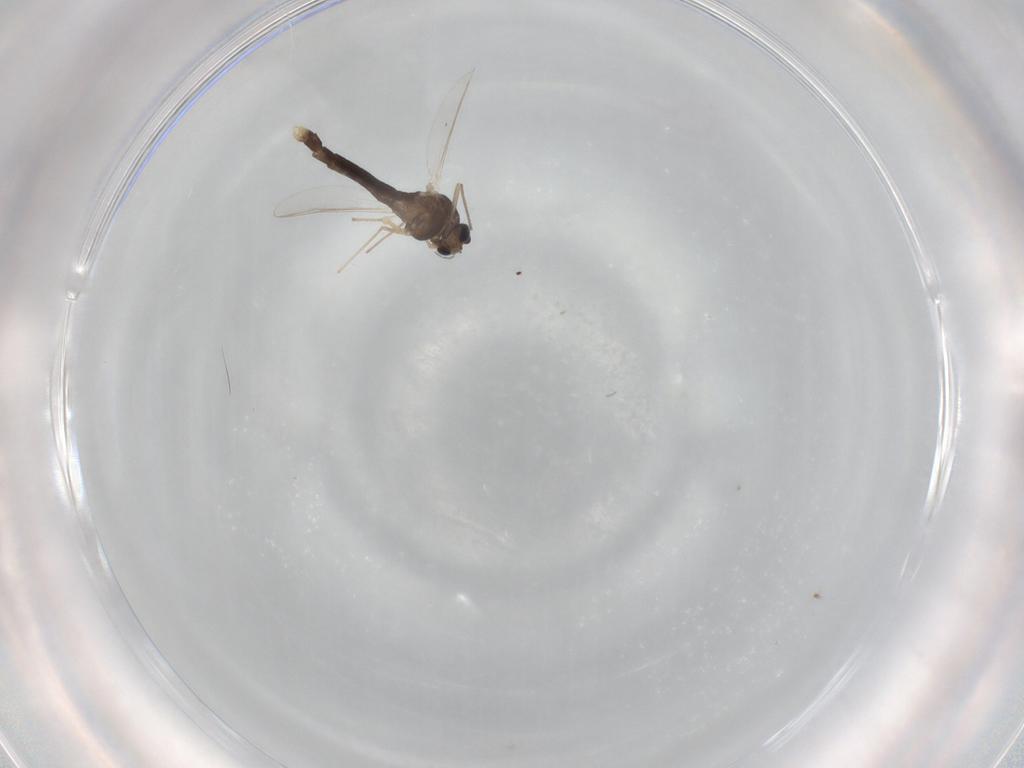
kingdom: Animalia
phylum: Arthropoda
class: Insecta
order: Diptera
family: Chironomidae
